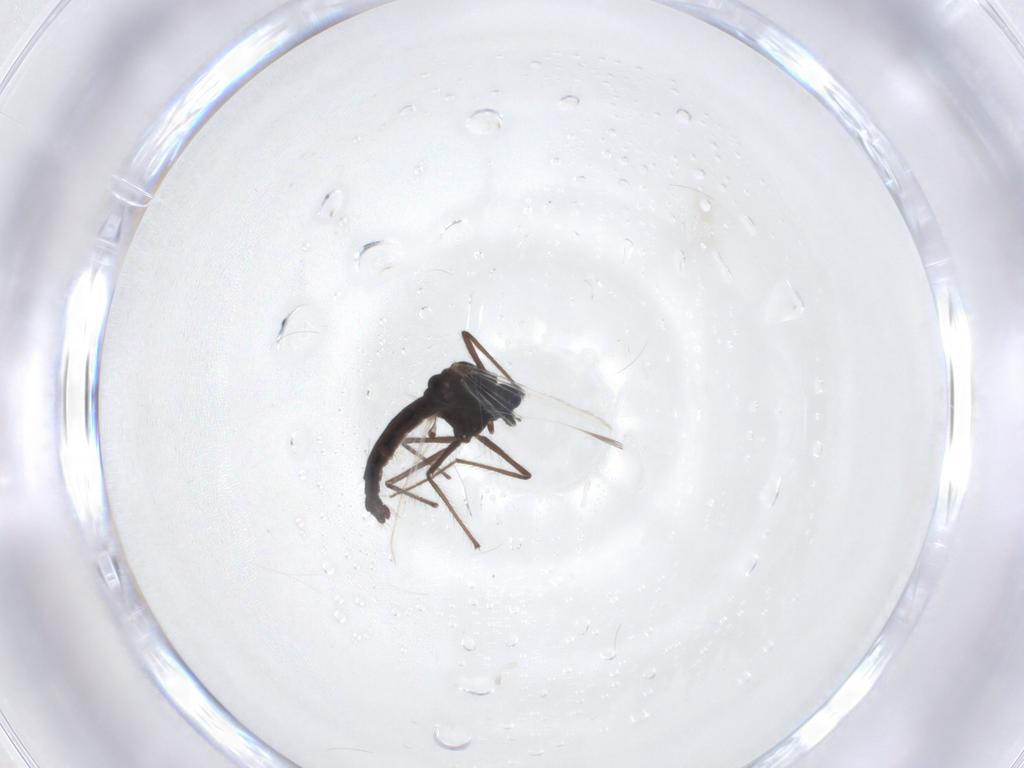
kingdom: Animalia
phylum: Arthropoda
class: Insecta
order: Diptera
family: Chironomidae
